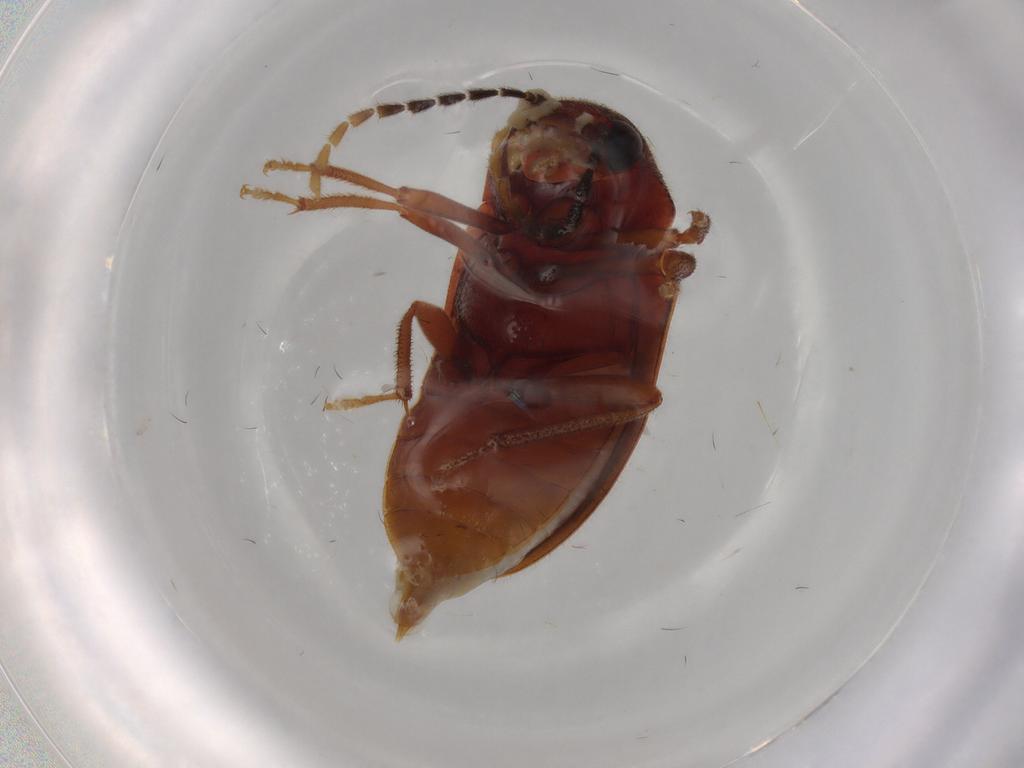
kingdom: Animalia
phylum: Arthropoda
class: Insecta
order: Coleoptera
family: Ptilodactylidae
